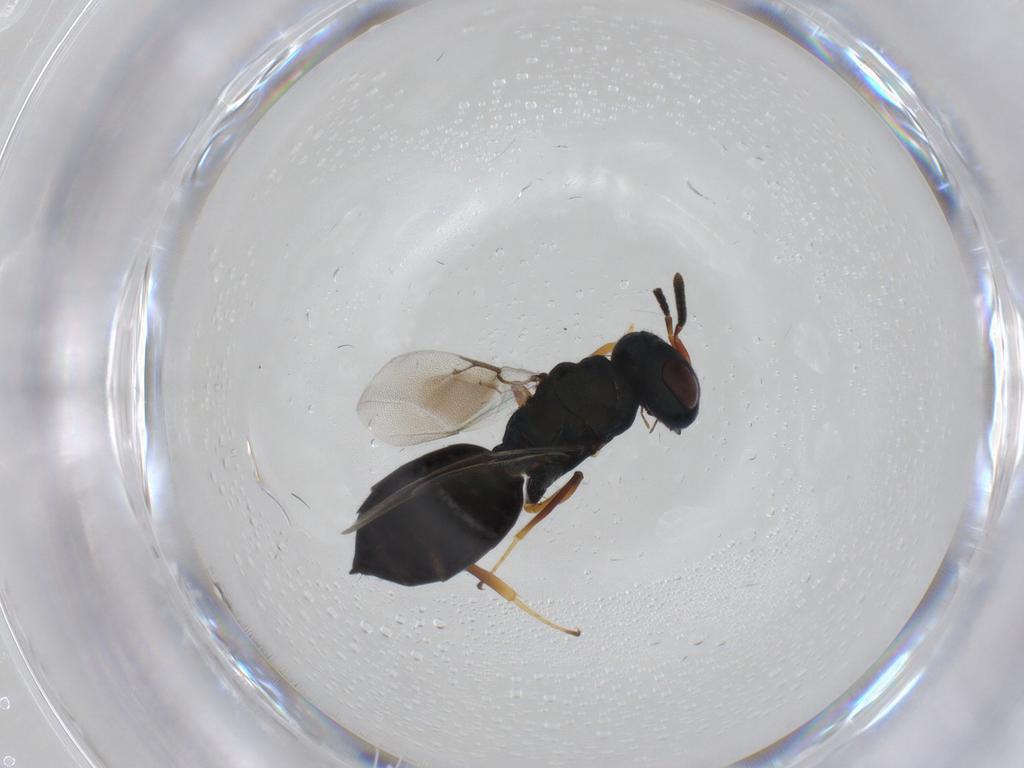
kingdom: Animalia
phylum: Arthropoda
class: Insecta
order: Hymenoptera
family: Pteromalidae
